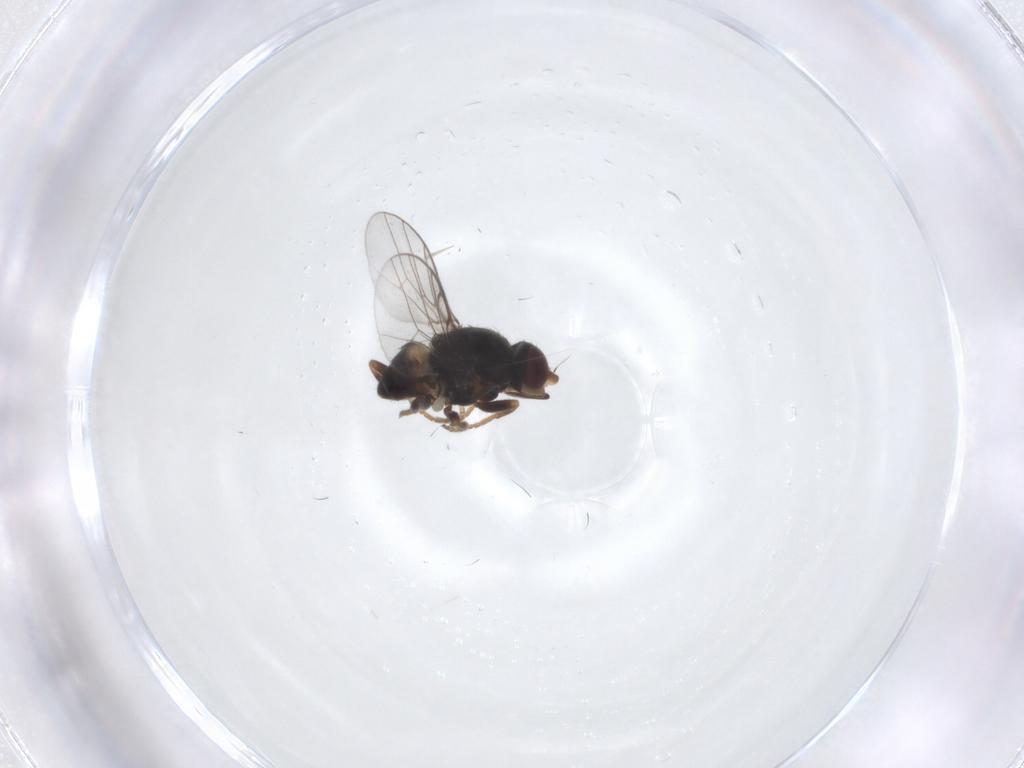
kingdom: Animalia
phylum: Arthropoda
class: Insecta
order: Diptera
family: Chloropidae
